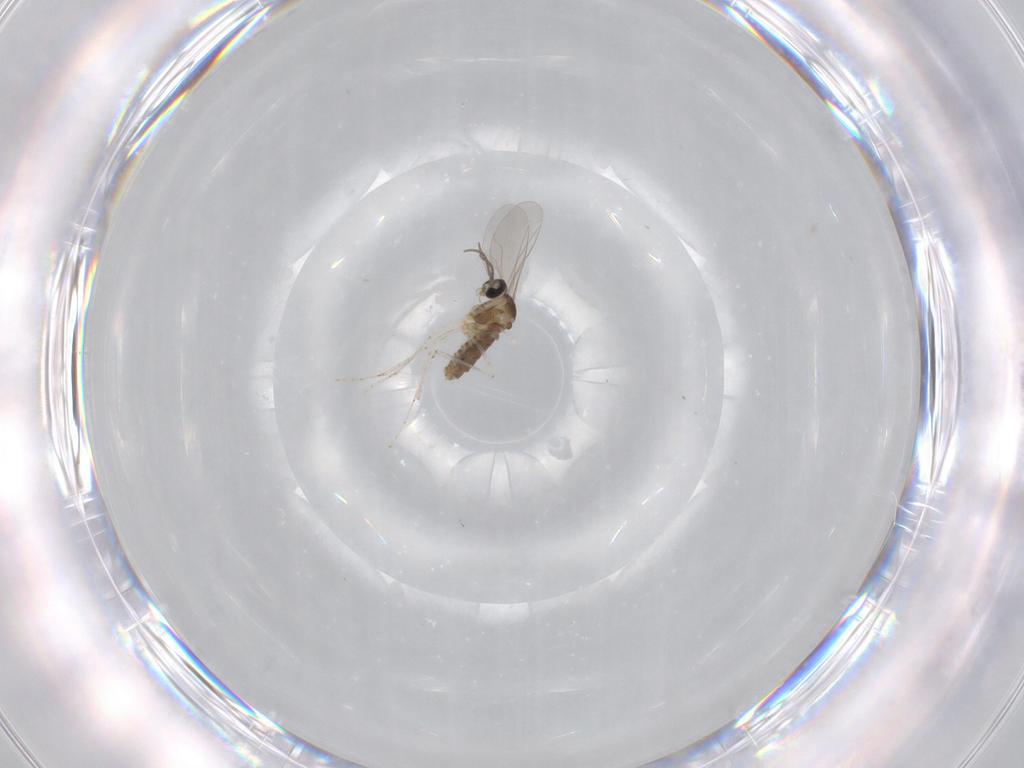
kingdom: Animalia
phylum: Arthropoda
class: Insecta
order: Diptera
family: Cecidomyiidae
